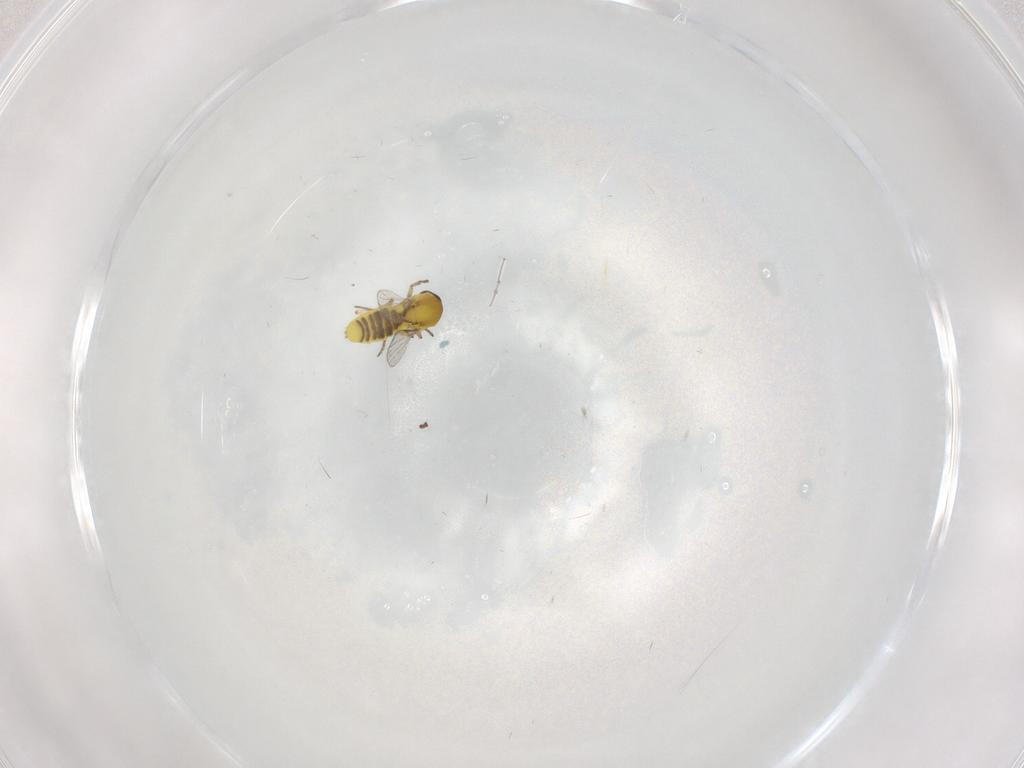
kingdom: Animalia
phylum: Arthropoda
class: Insecta
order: Diptera
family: Ceratopogonidae
